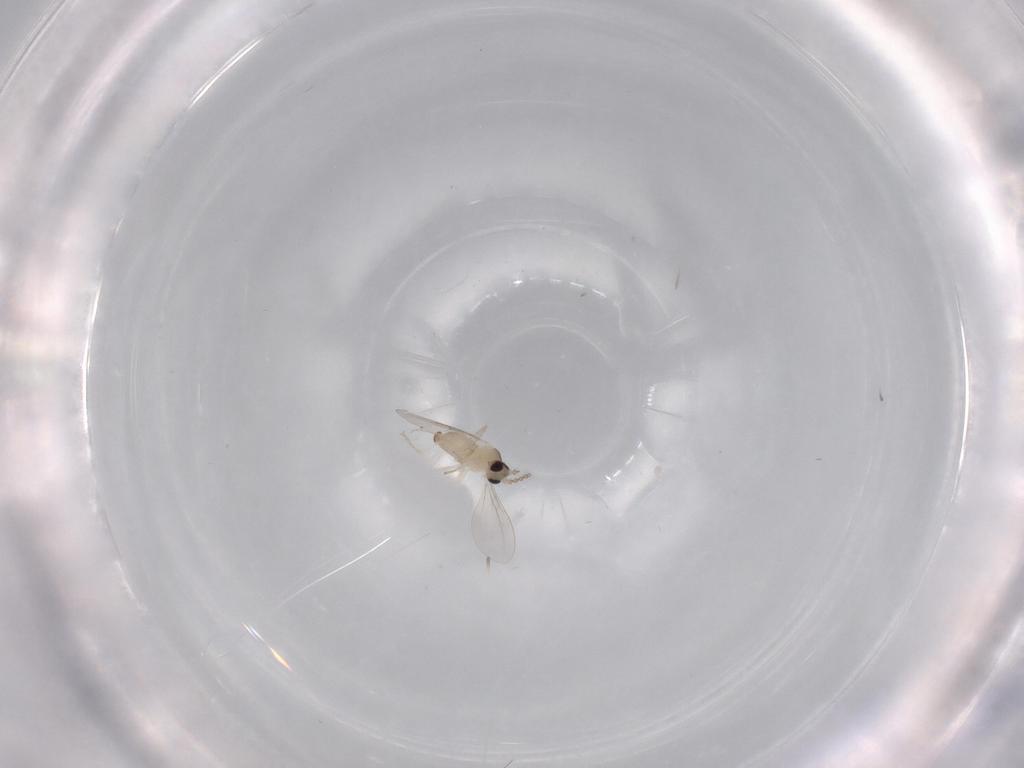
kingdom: Animalia
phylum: Arthropoda
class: Insecta
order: Diptera
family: Cecidomyiidae
